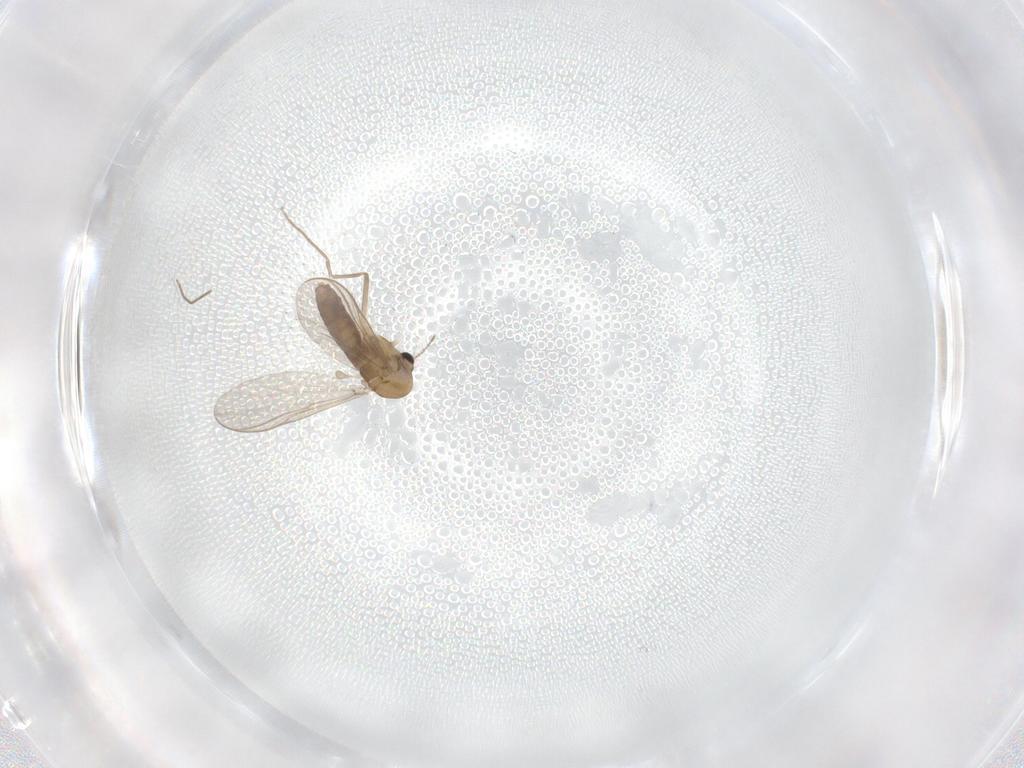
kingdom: Animalia
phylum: Arthropoda
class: Insecta
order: Diptera
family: Chironomidae
